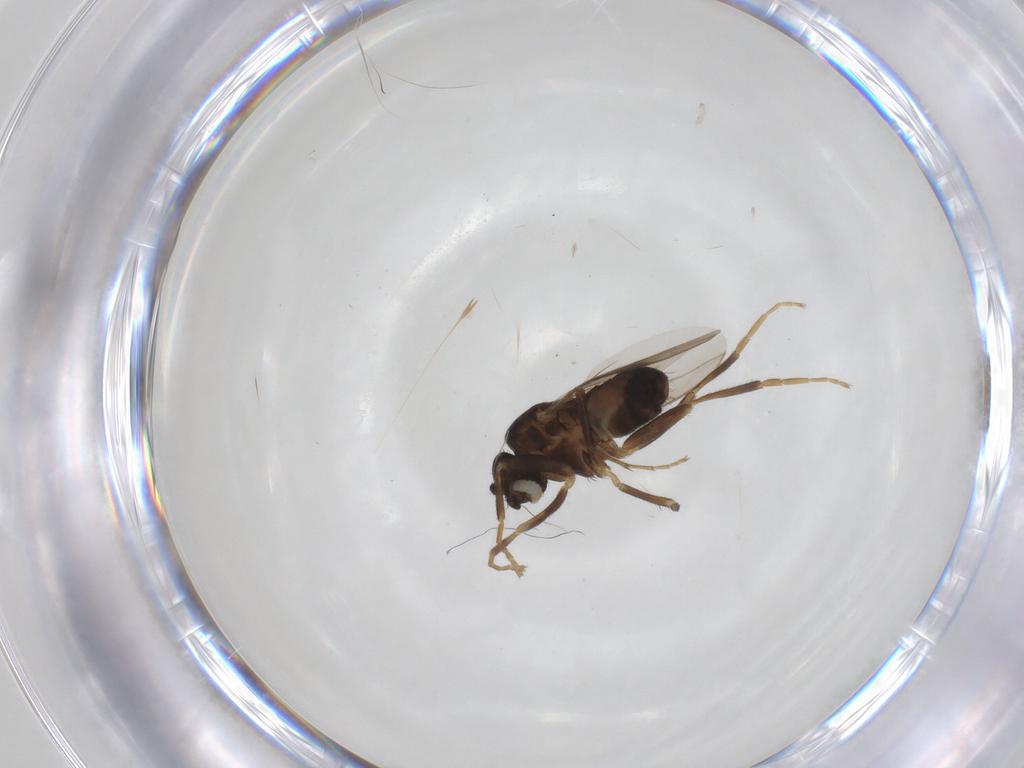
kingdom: Animalia
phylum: Arthropoda
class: Insecta
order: Diptera
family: Sphaeroceridae
